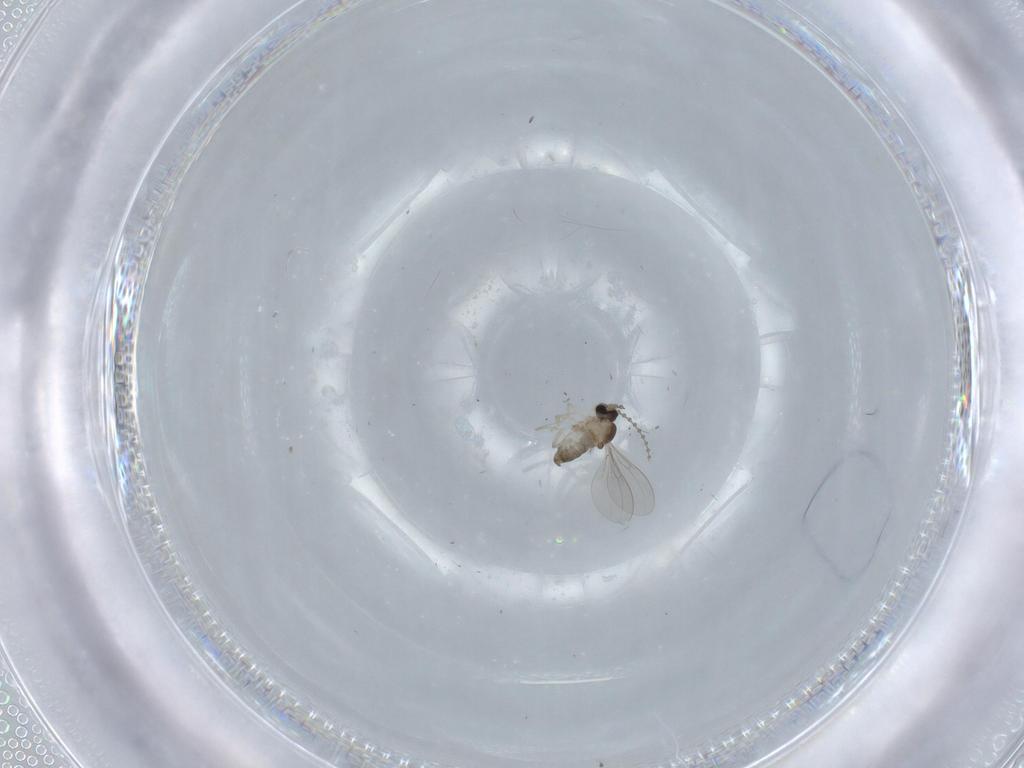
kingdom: Animalia
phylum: Arthropoda
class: Insecta
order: Diptera
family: Cecidomyiidae
